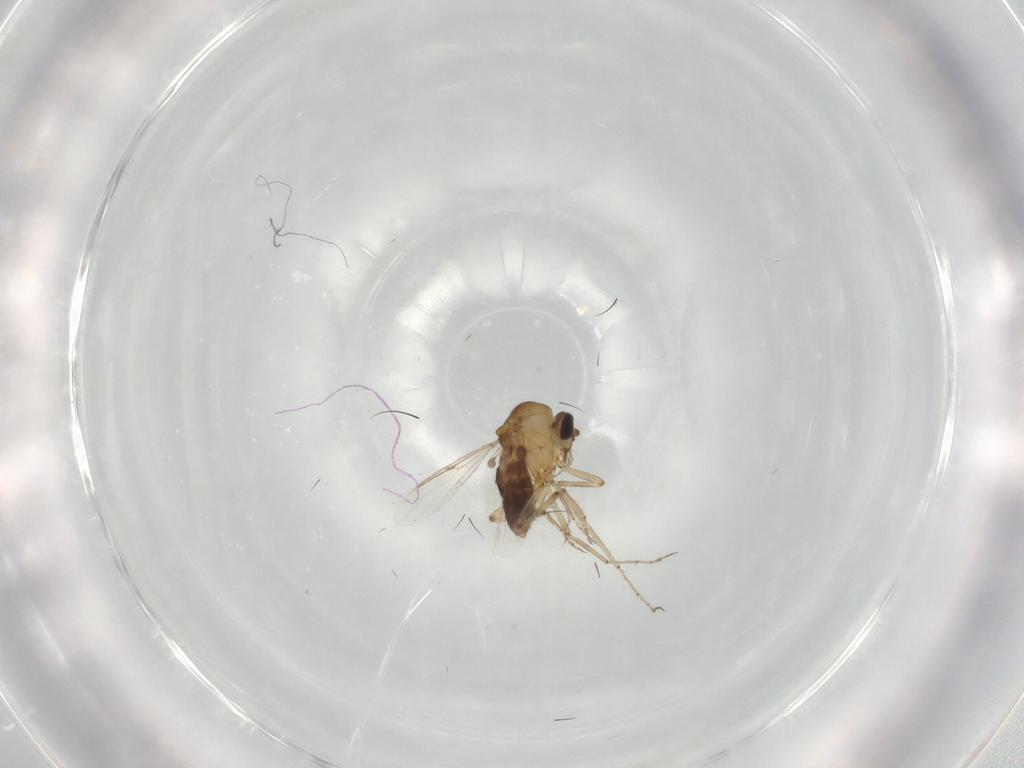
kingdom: Animalia
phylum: Arthropoda
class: Insecta
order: Diptera
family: Ceratopogonidae
